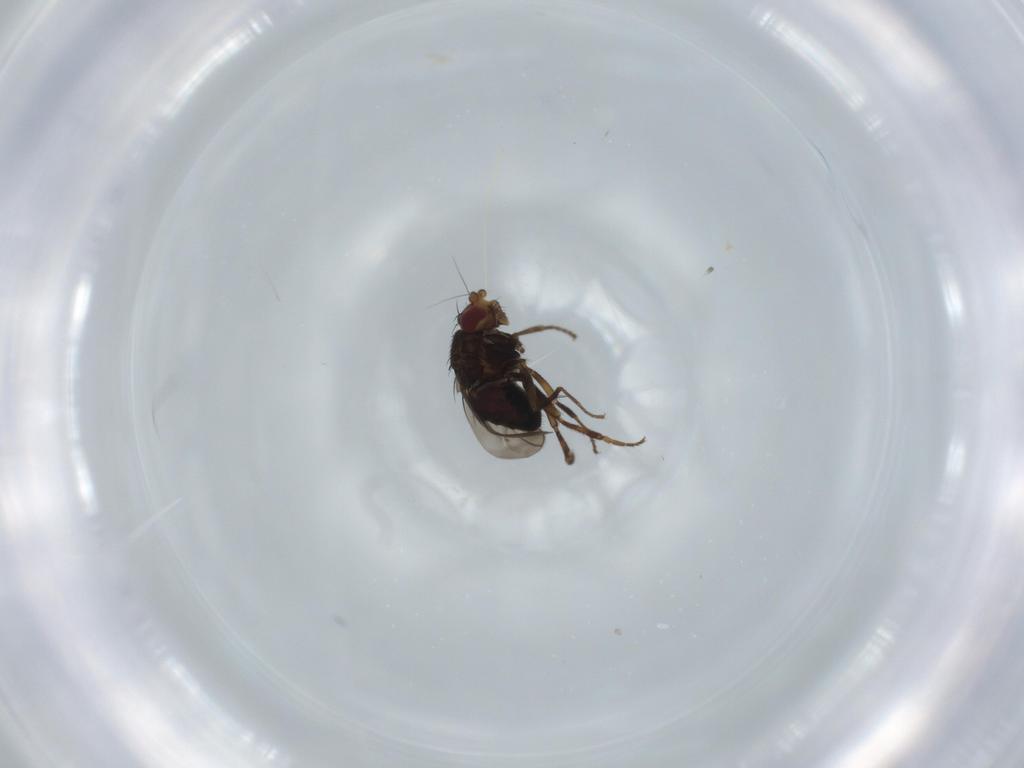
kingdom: Animalia
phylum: Arthropoda
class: Insecta
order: Diptera
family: Sphaeroceridae
